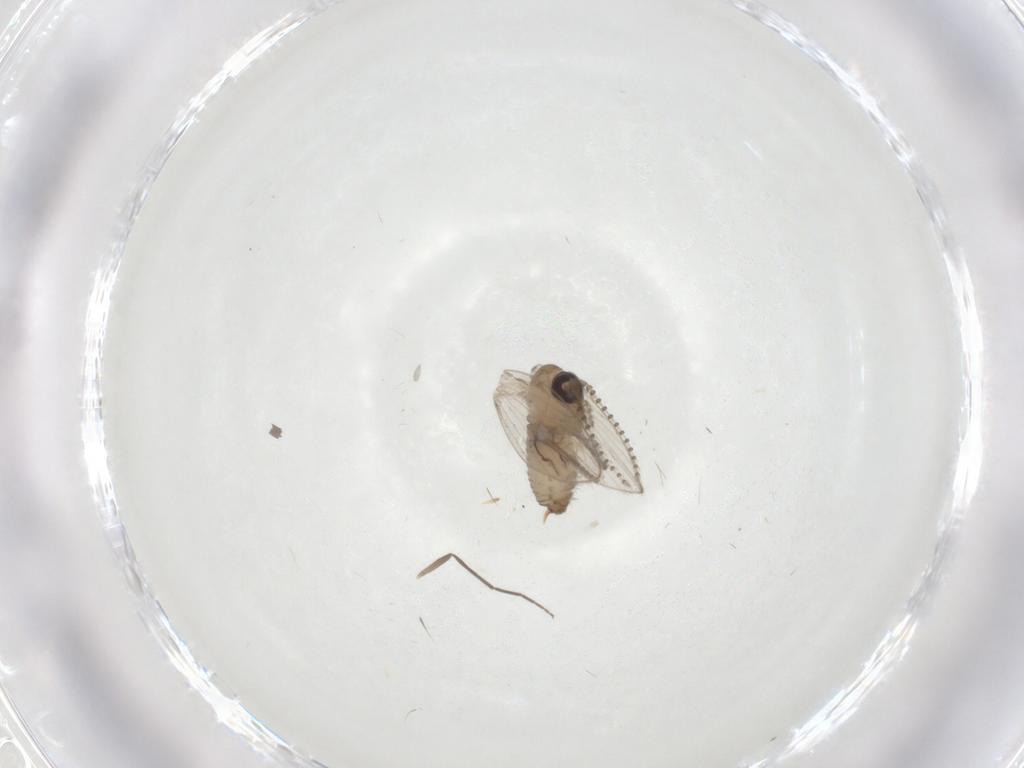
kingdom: Animalia
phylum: Arthropoda
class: Insecta
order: Diptera
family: Psychodidae
